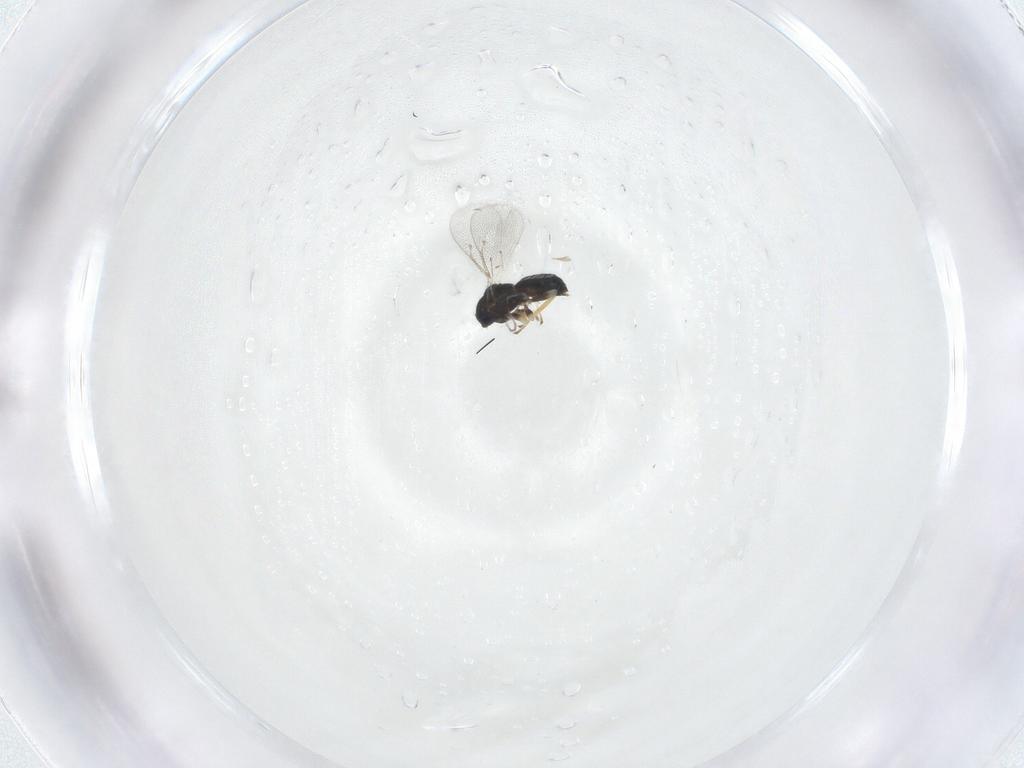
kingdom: Animalia
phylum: Arthropoda
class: Insecta
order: Hymenoptera
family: Eulophidae
